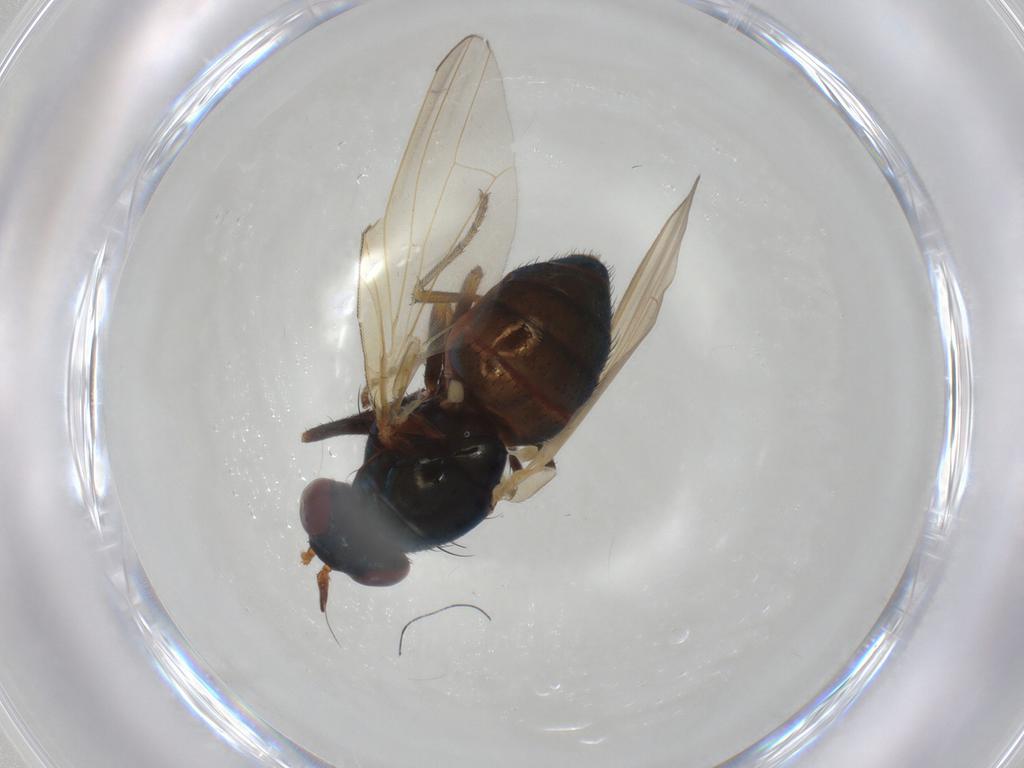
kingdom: Animalia
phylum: Arthropoda
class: Insecta
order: Diptera
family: Lauxaniidae
